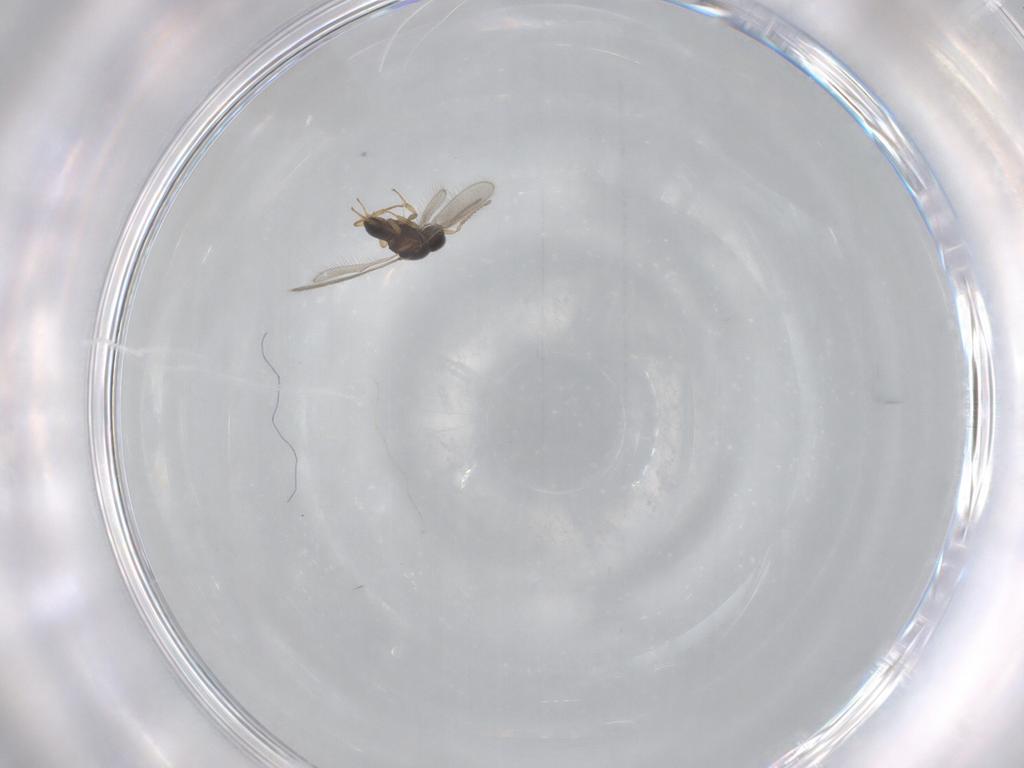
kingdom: Animalia
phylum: Arthropoda
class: Insecta
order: Hymenoptera
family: Scelionidae
